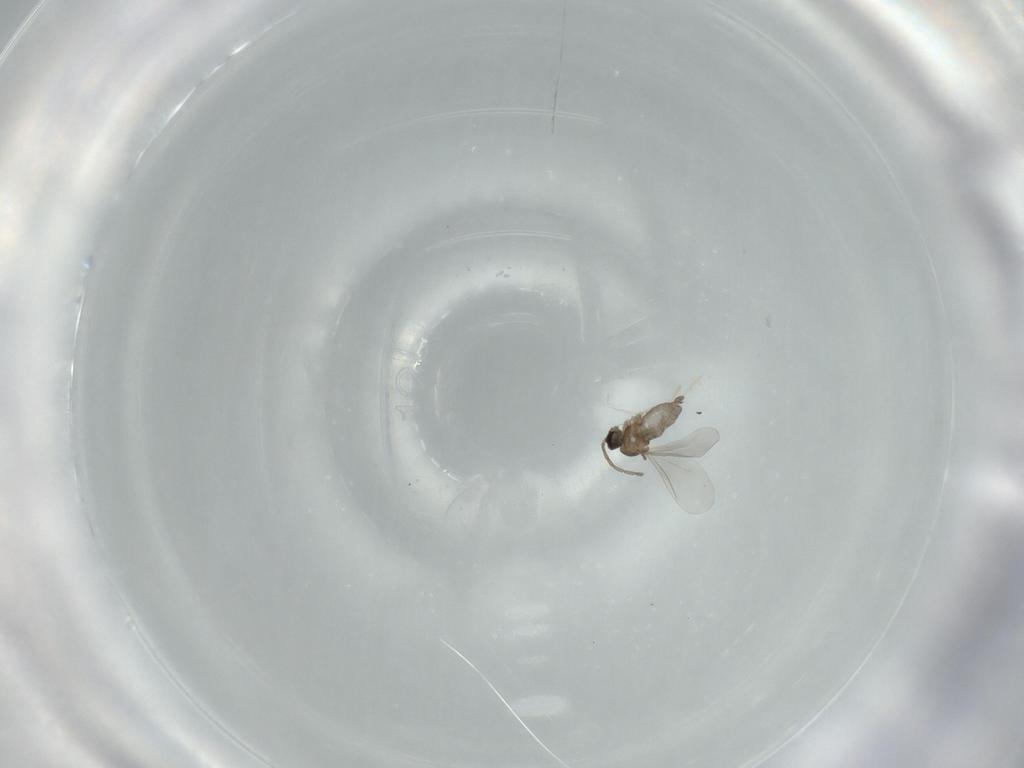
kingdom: Animalia
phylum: Arthropoda
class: Insecta
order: Diptera
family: Cecidomyiidae
